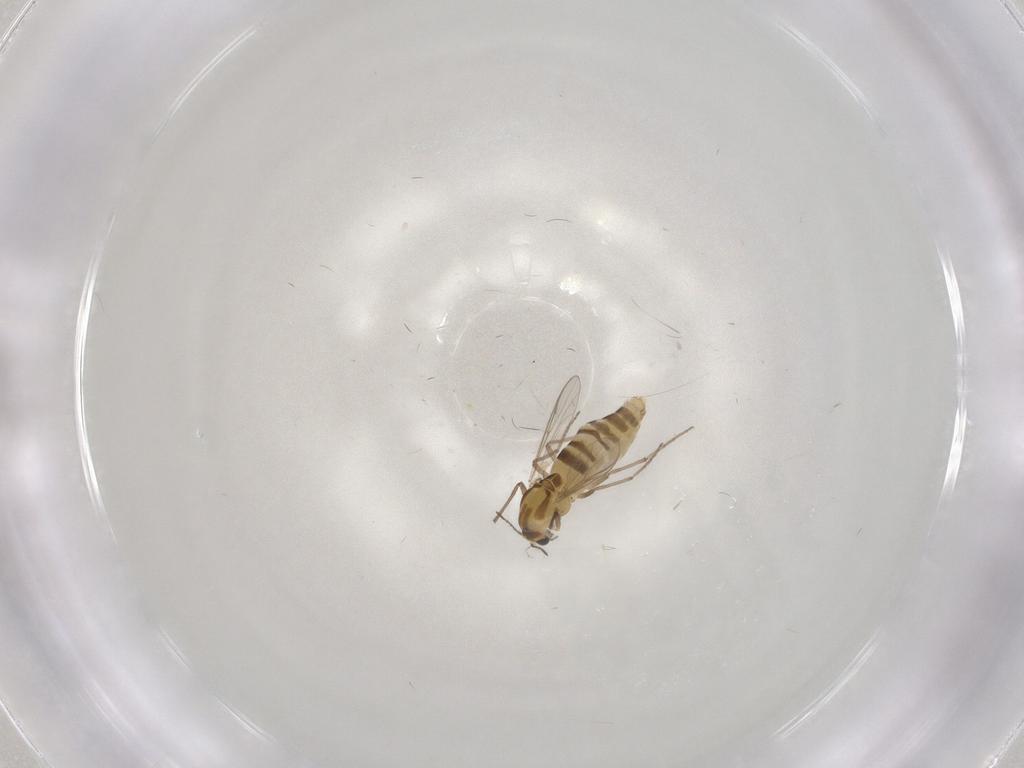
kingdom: Animalia
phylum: Arthropoda
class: Insecta
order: Diptera
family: Chironomidae
